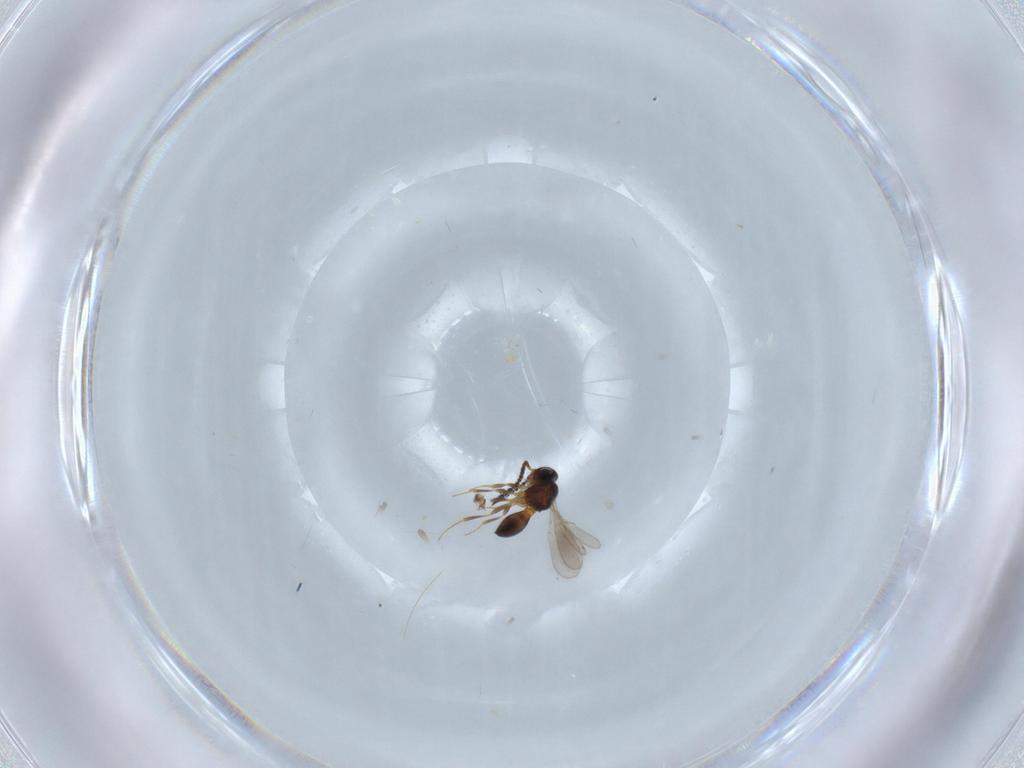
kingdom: Animalia
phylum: Arthropoda
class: Insecta
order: Hymenoptera
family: Scelionidae
